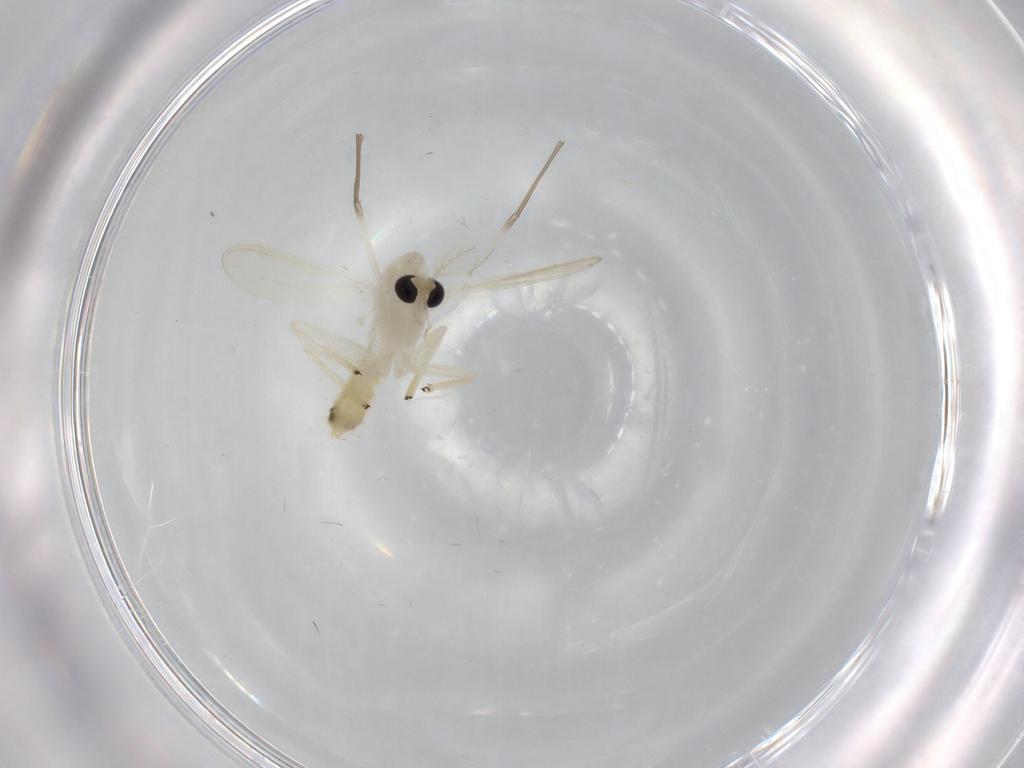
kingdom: Animalia
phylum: Arthropoda
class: Insecta
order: Diptera
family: Chironomidae
